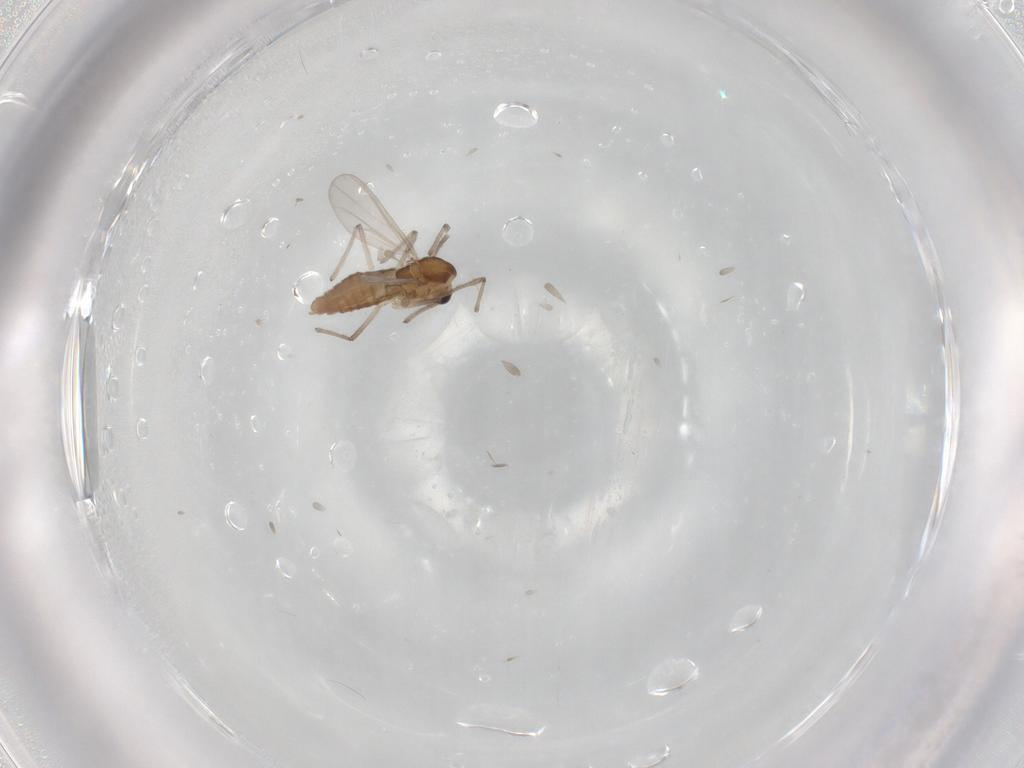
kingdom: Animalia
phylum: Arthropoda
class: Insecta
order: Diptera
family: Chironomidae
